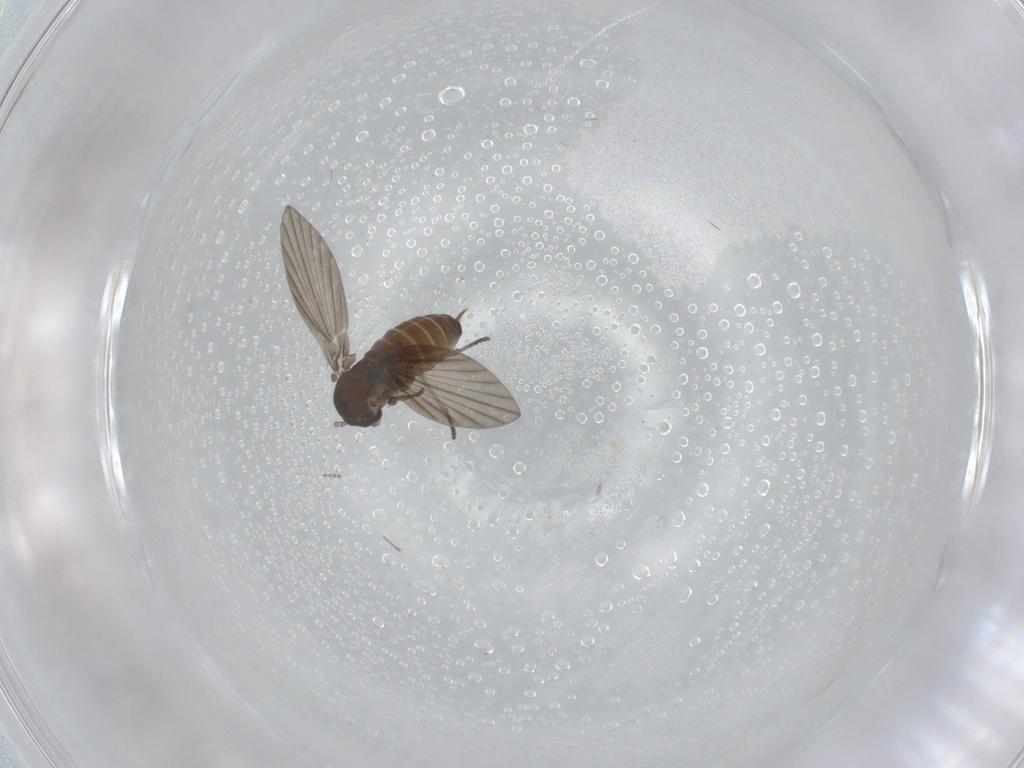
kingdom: Animalia
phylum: Arthropoda
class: Insecta
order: Diptera
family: Psychodidae
